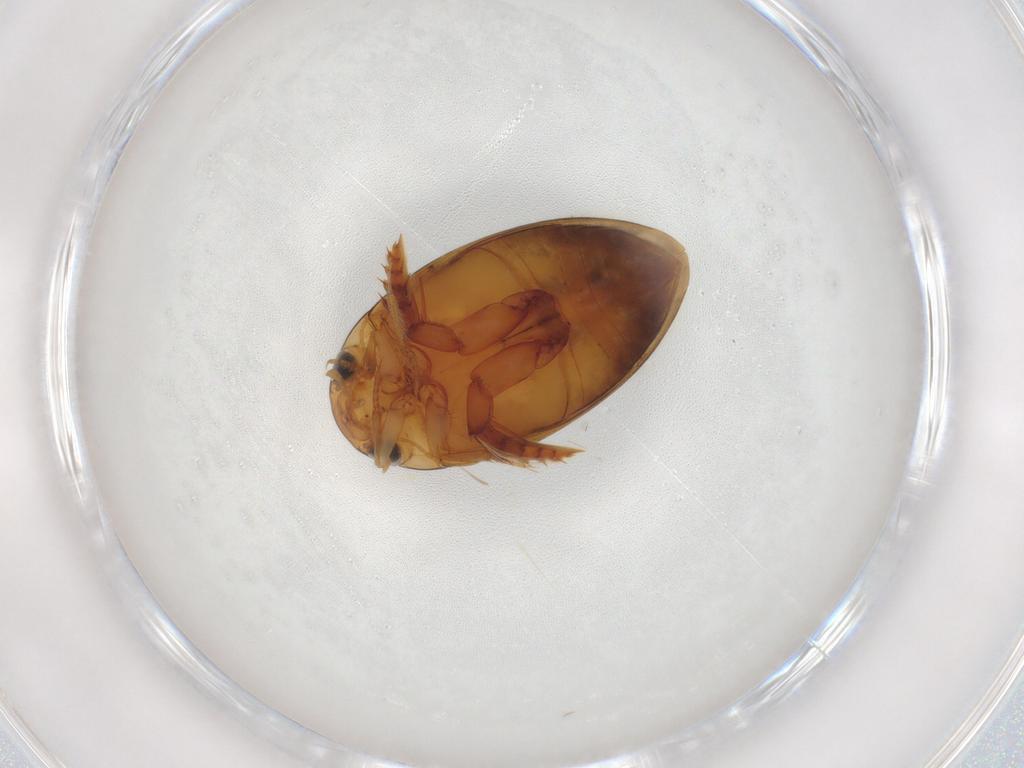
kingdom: Animalia
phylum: Arthropoda
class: Insecta
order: Coleoptera
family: Dytiscidae
